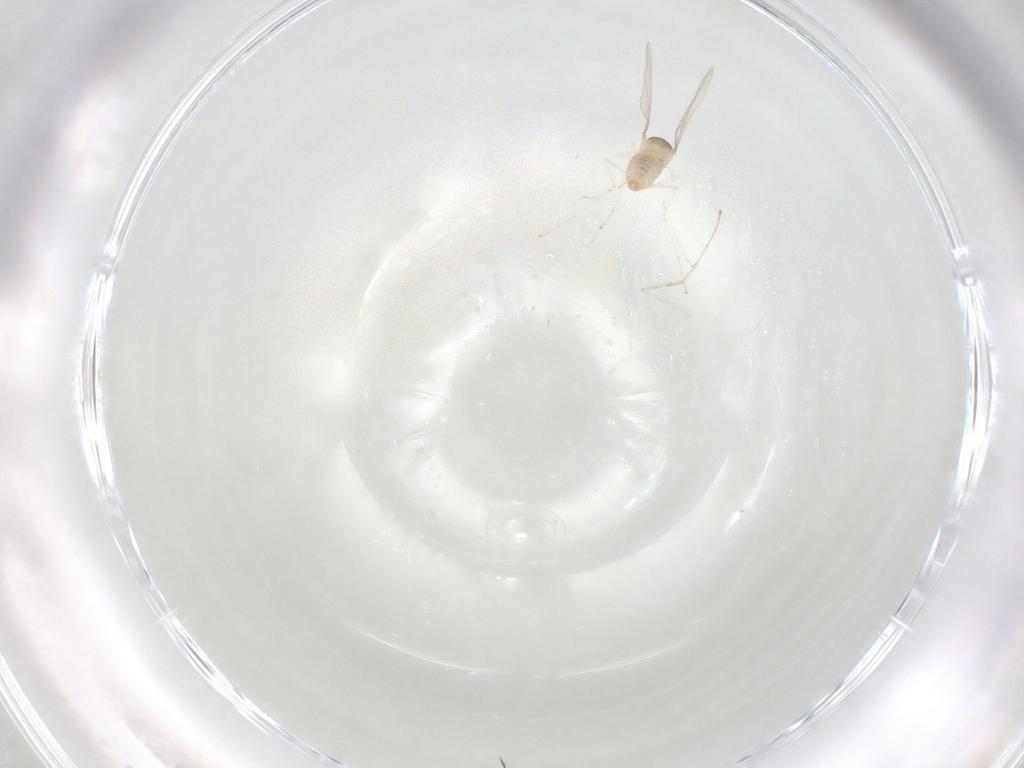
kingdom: Animalia
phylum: Arthropoda
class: Insecta
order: Diptera
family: Cecidomyiidae
